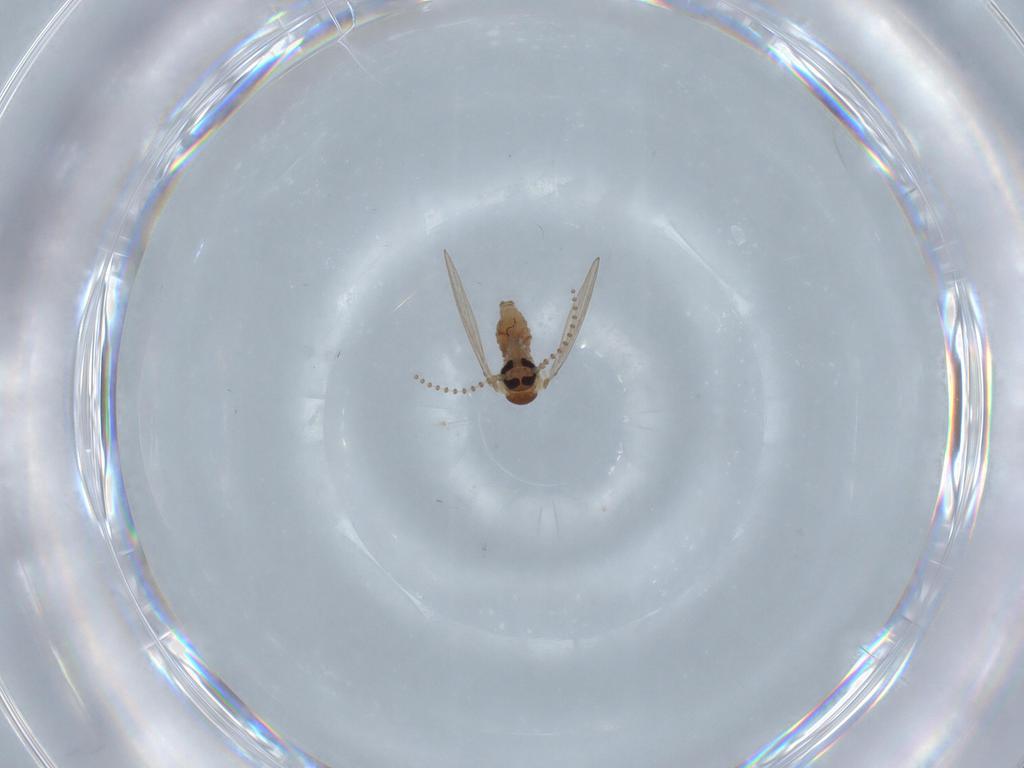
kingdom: Animalia
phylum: Arthropoda
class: Insecta
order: Diptera
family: Psychodidae
